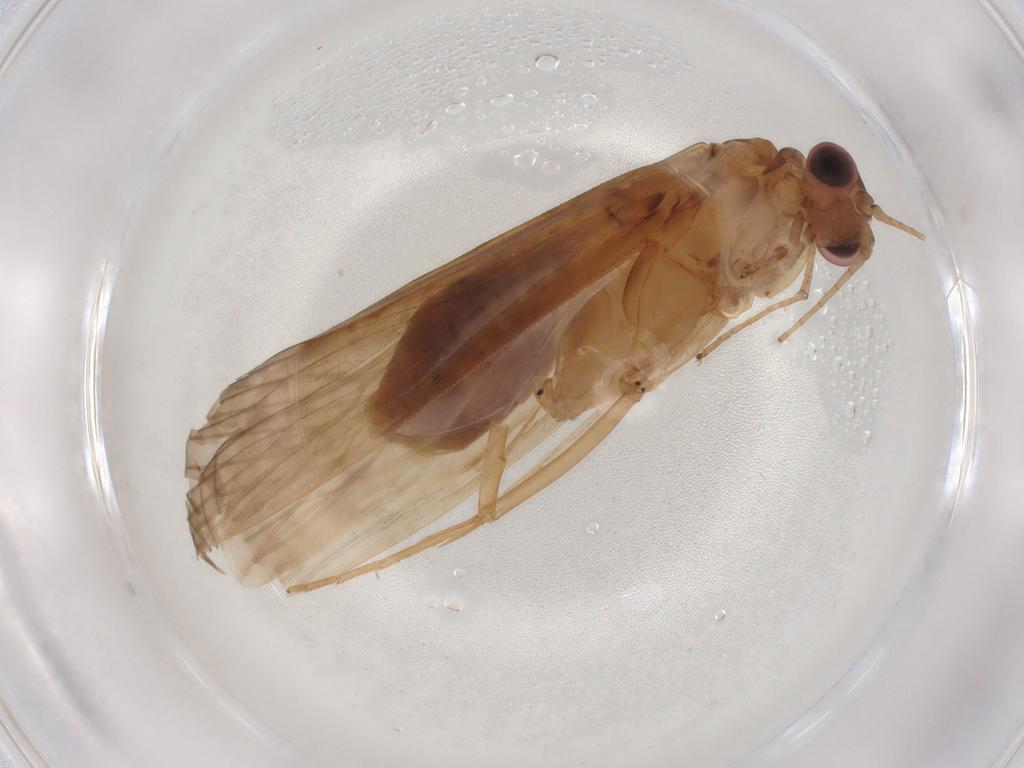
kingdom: Animalia
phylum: Arthropoda
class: Insecta
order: Trichoptera
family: Hydropsychidae
